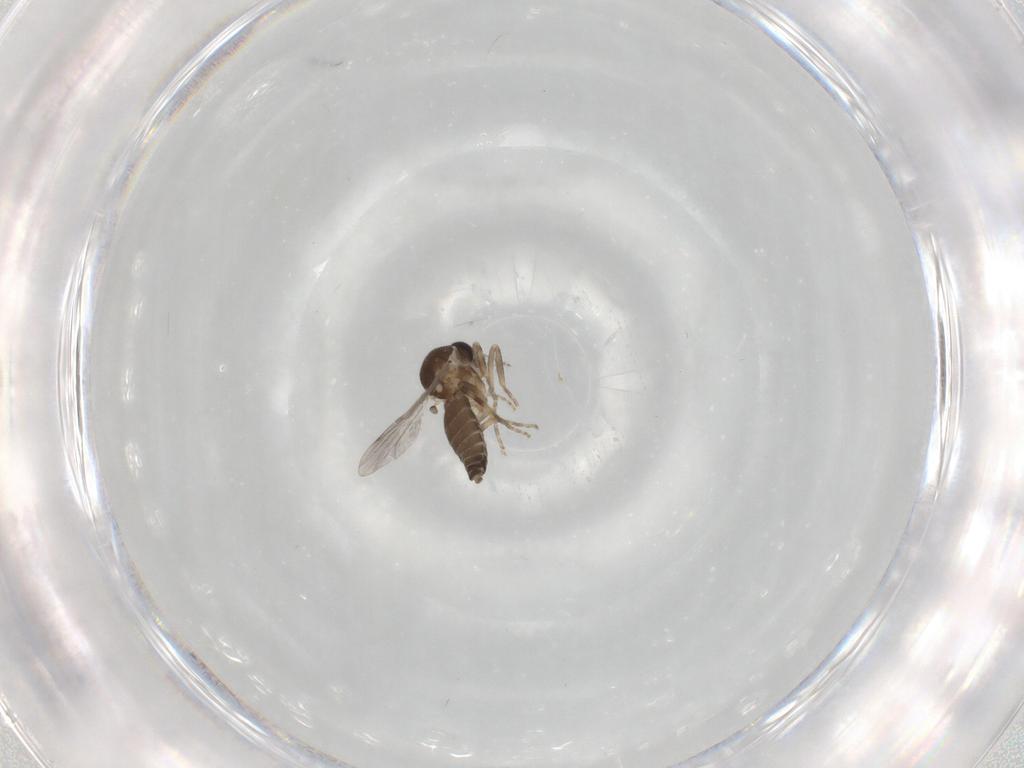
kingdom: Animalia
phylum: Arthropoda
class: Insecta
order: Diptera
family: Ceratopogonidae
